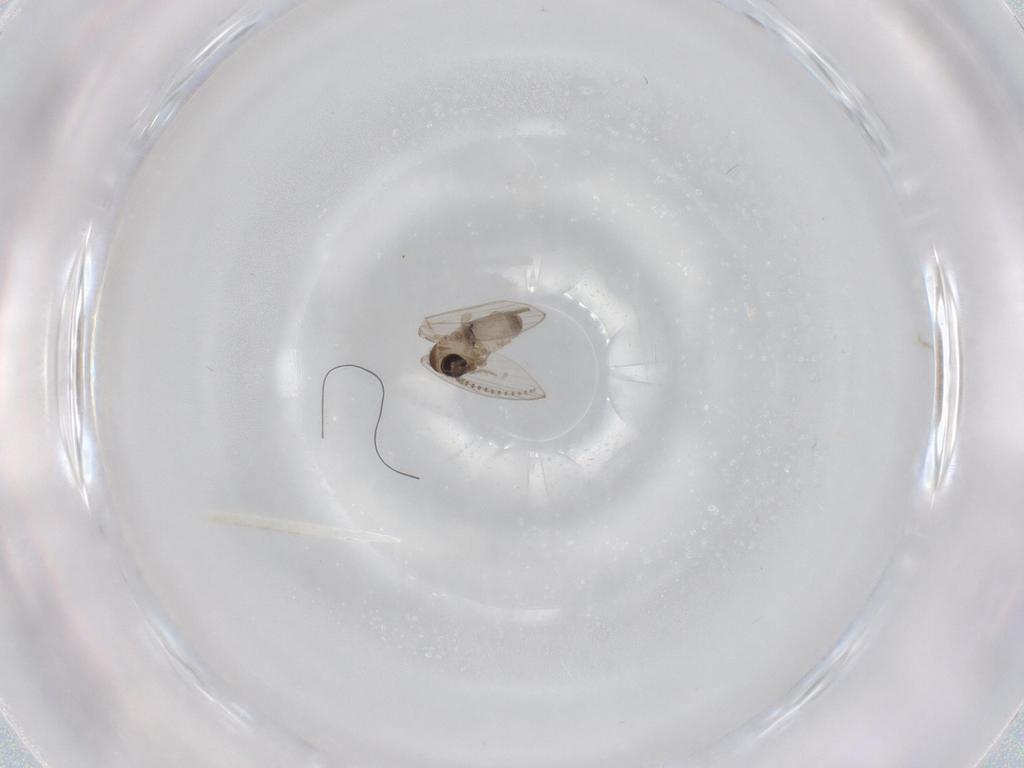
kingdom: Animalia
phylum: Arthropoda
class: Insecta
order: Diptera
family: Psychodidae
